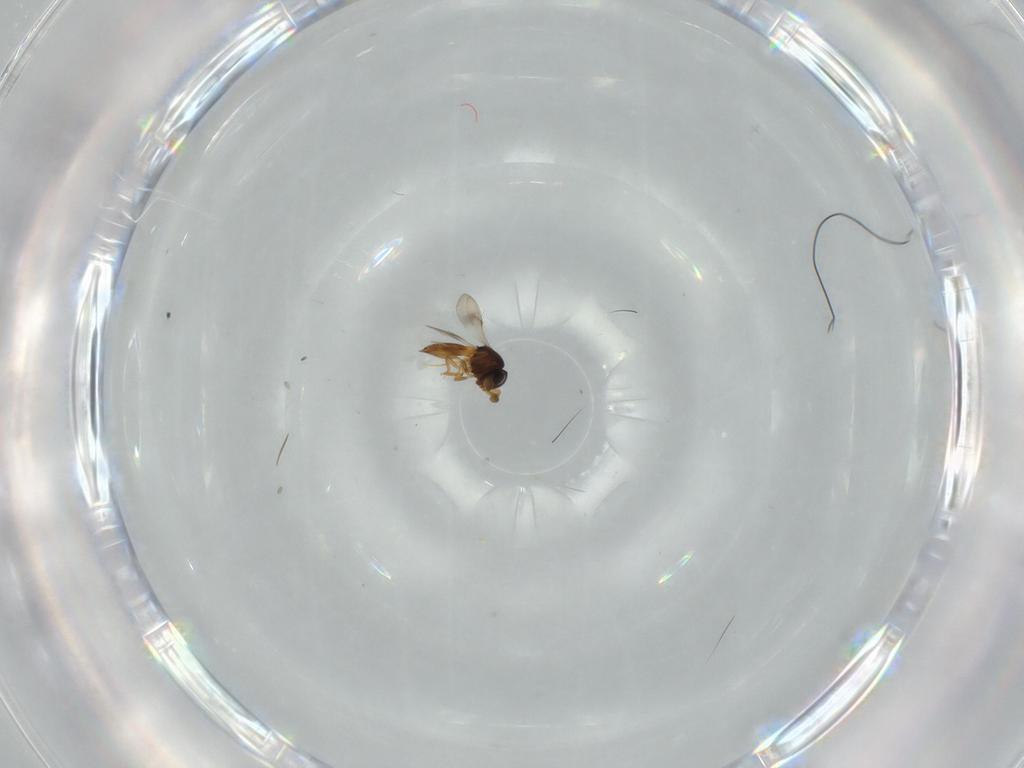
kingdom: Animalia
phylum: Arthropoda
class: Insecta
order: Hymenoptera
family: Scelionidae
